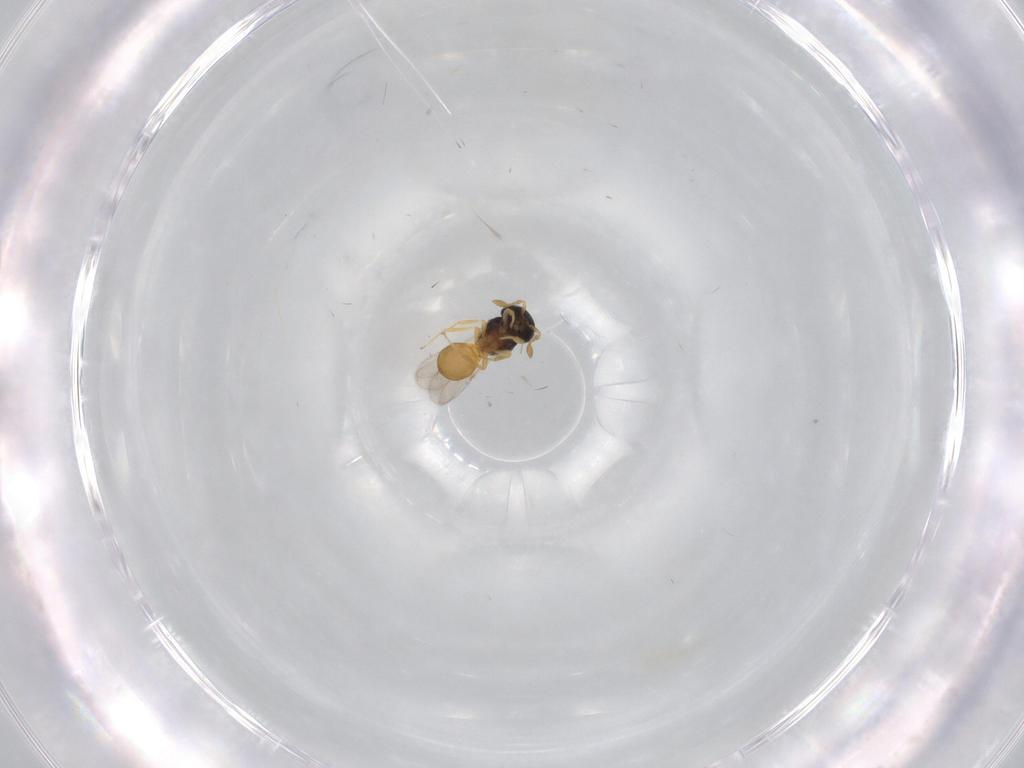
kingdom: Animalia
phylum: Arthropoda
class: Insecta
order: Hymenoptera
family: Scelionidae
